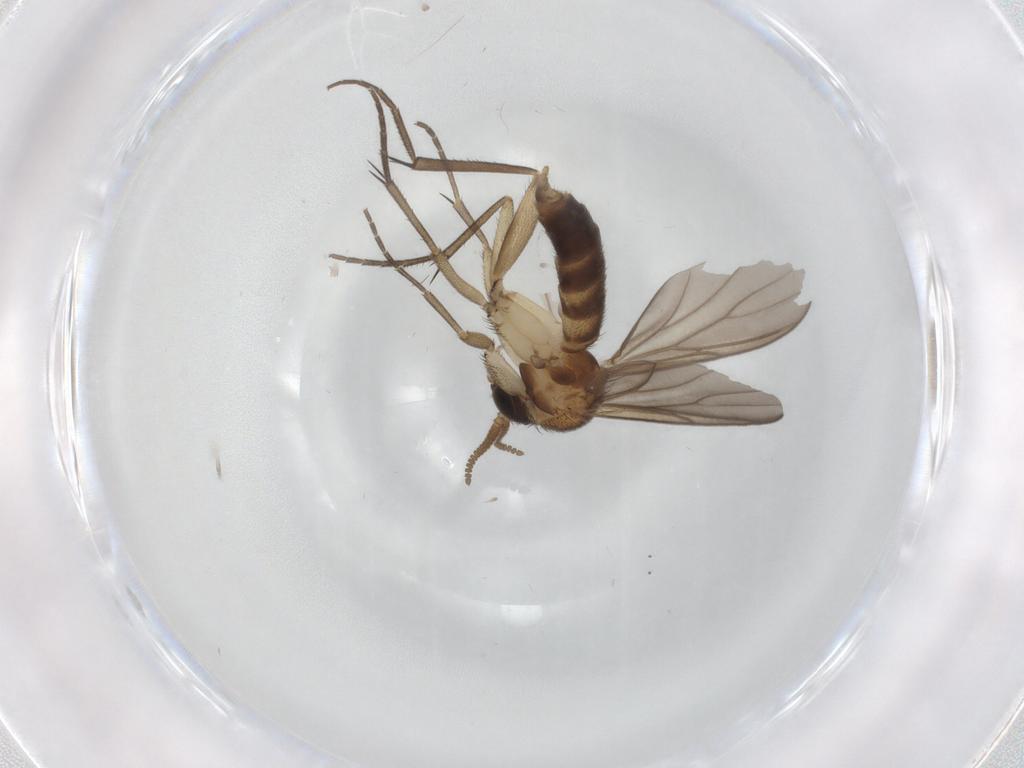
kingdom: Animalia
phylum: Arthropoda
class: Insecta
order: Diptera
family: Mycetophilidae
